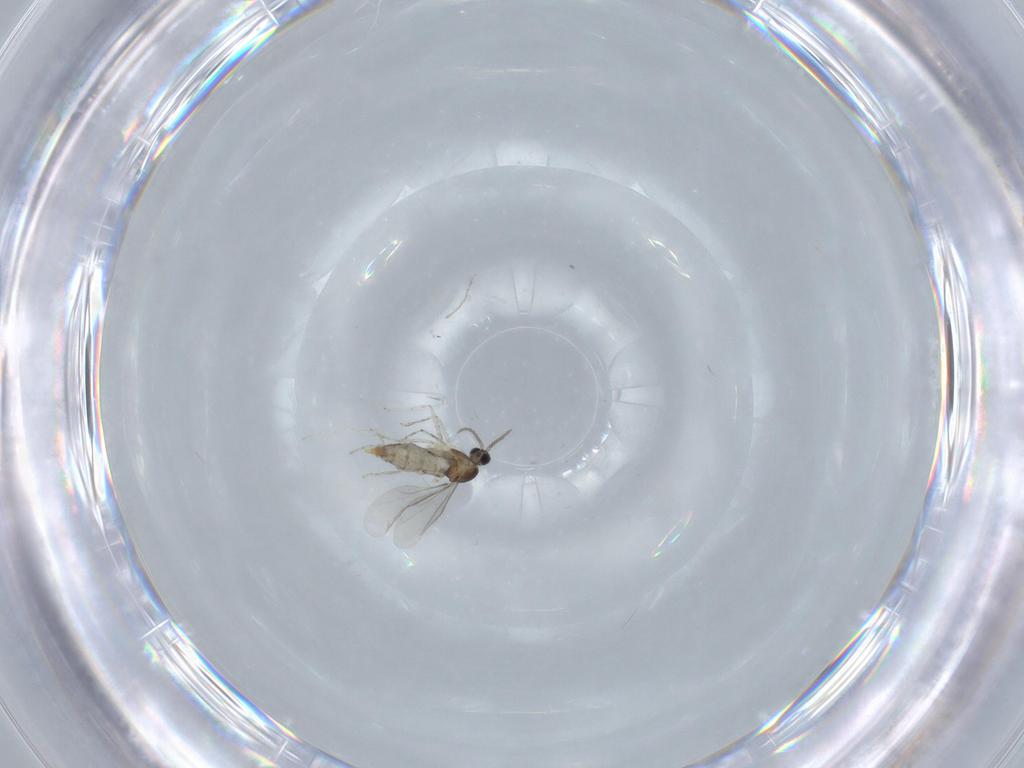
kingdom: Animalia
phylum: Arthropoda
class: Insecta
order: Diptera
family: Cecidomyiidae
